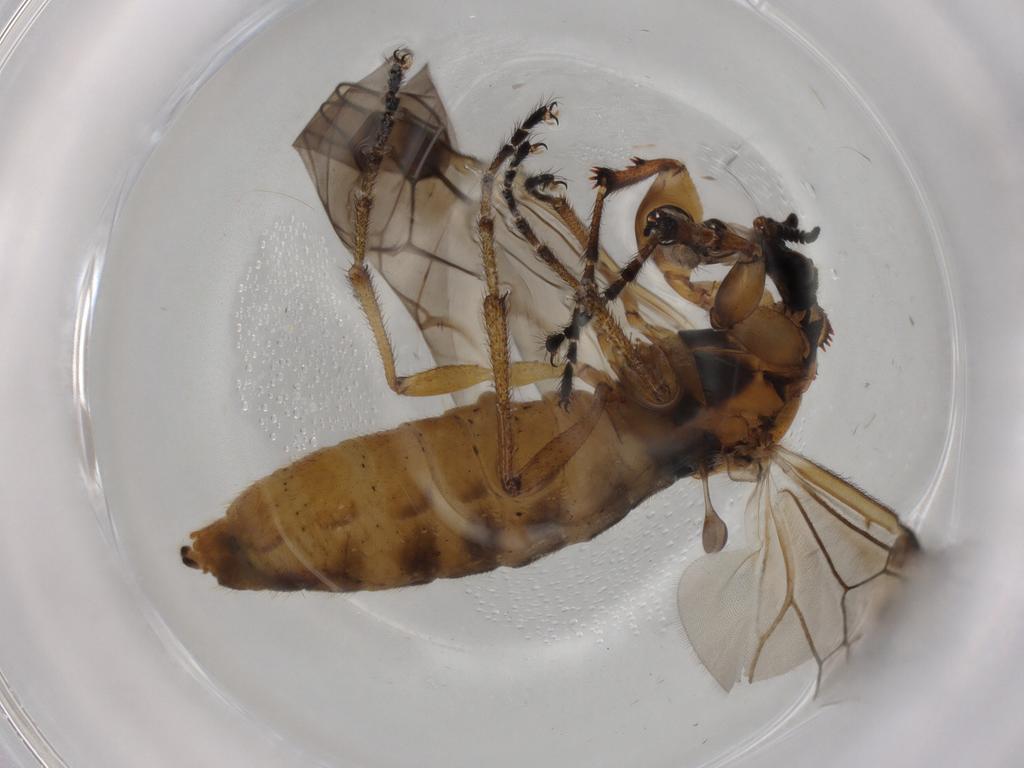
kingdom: Animalia
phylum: Arthropoda
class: Insecta
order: Diptera
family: Bibionidae
